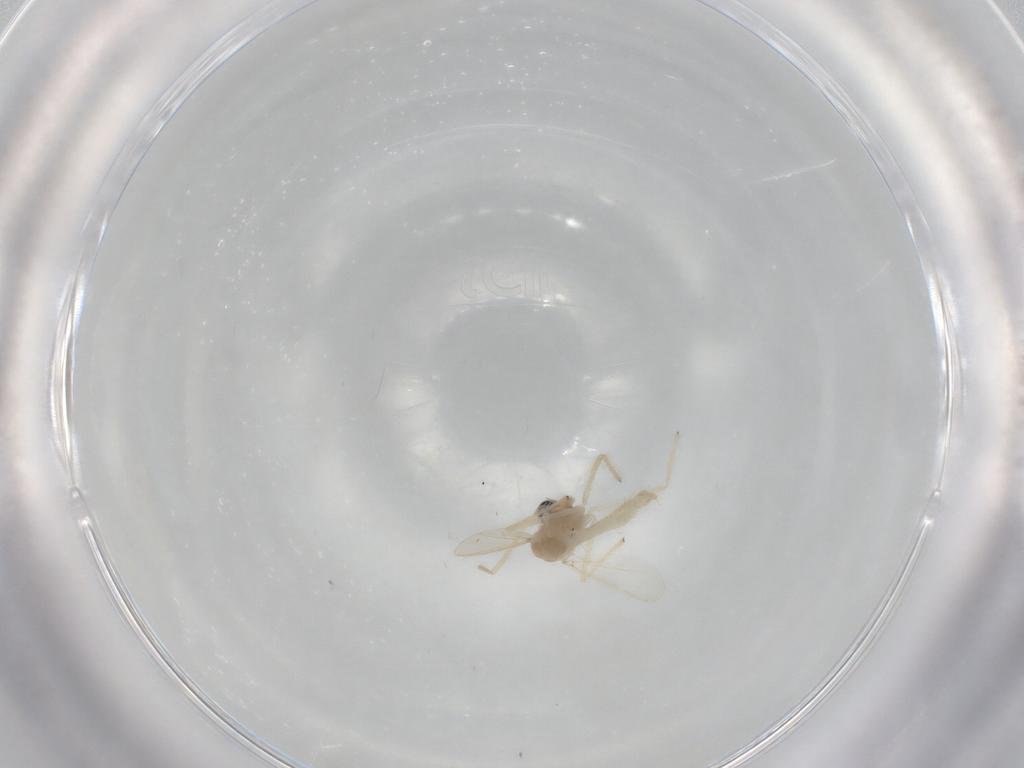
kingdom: Animalia
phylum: Arthropoda
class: Insecta
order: Diptera
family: Chironomidae
